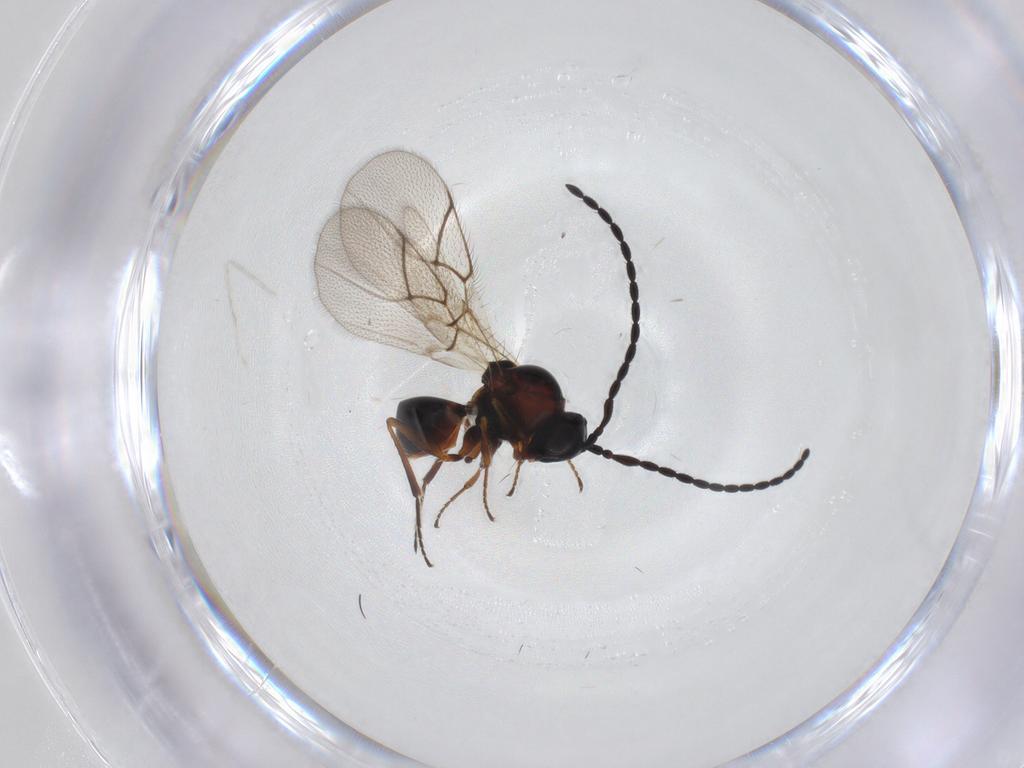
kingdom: Animalia
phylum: Arthropoda
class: Insecta
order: Hymenoptera
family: Figitidae
